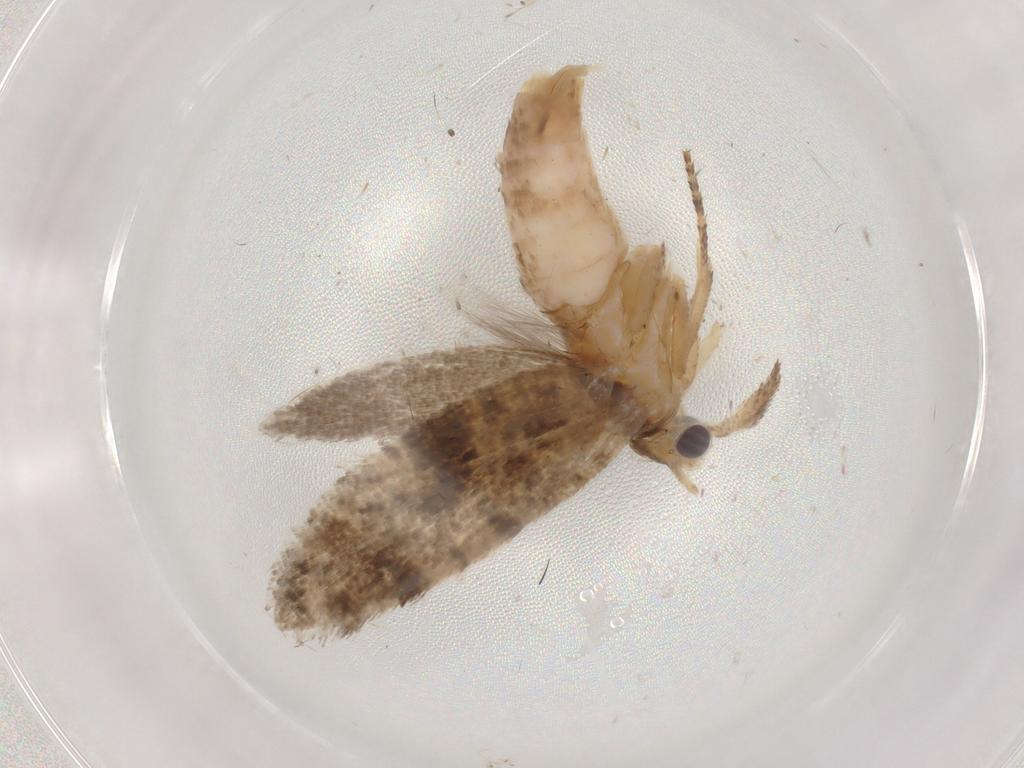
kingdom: Animalia
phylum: Arthropoda
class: Insecta
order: Lepidoptera
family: Plutellidae
